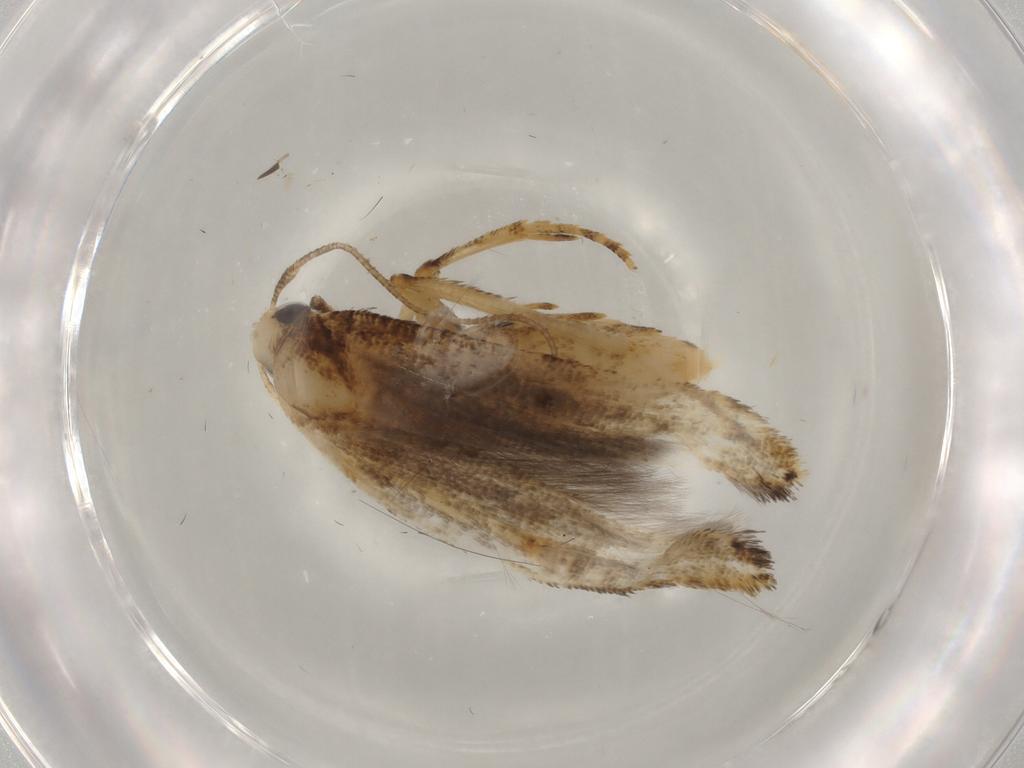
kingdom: Animalia
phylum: Arthropoda
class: Insecta
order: Lepidoptera
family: Cosmopterigidae
